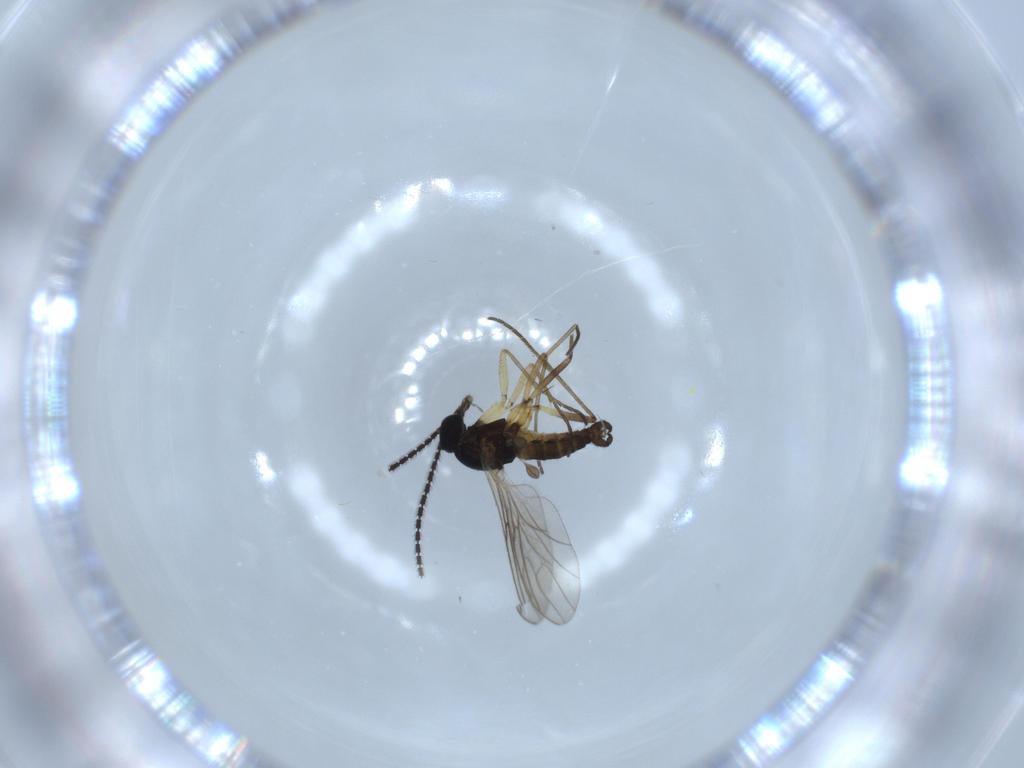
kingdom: Animalia
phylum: Arthropoda
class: Insecta
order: Diptera
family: Sciaridae
